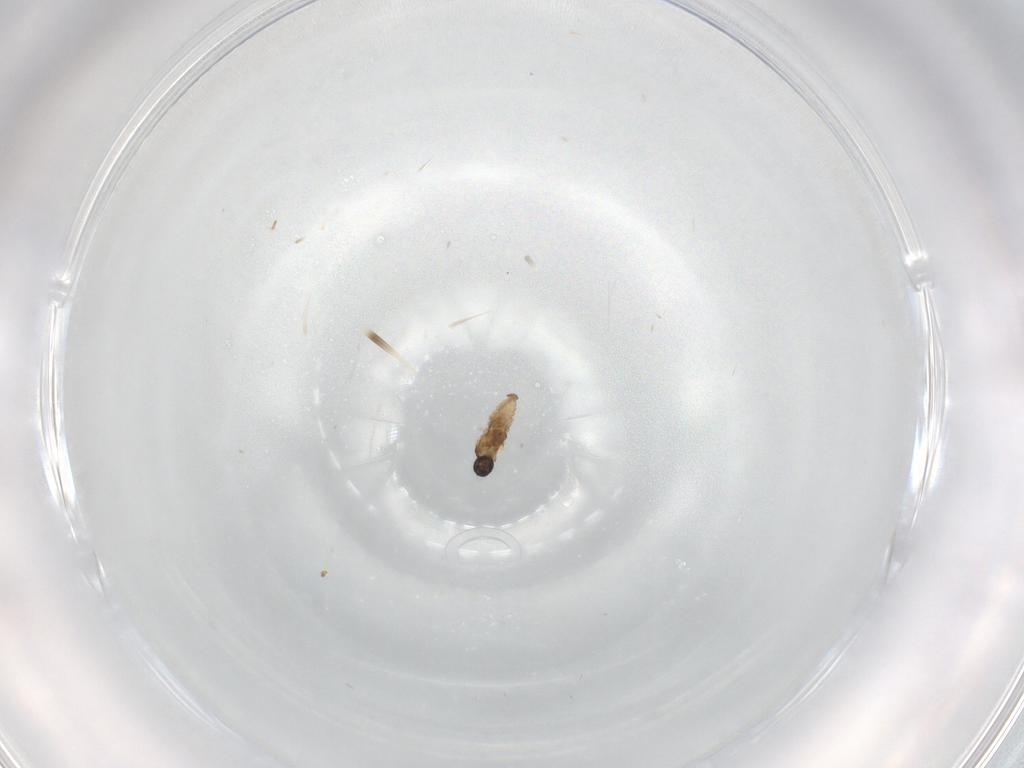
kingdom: Animalia
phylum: Arthropoda
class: Insecta
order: Diptera
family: Cecidomyiidae
